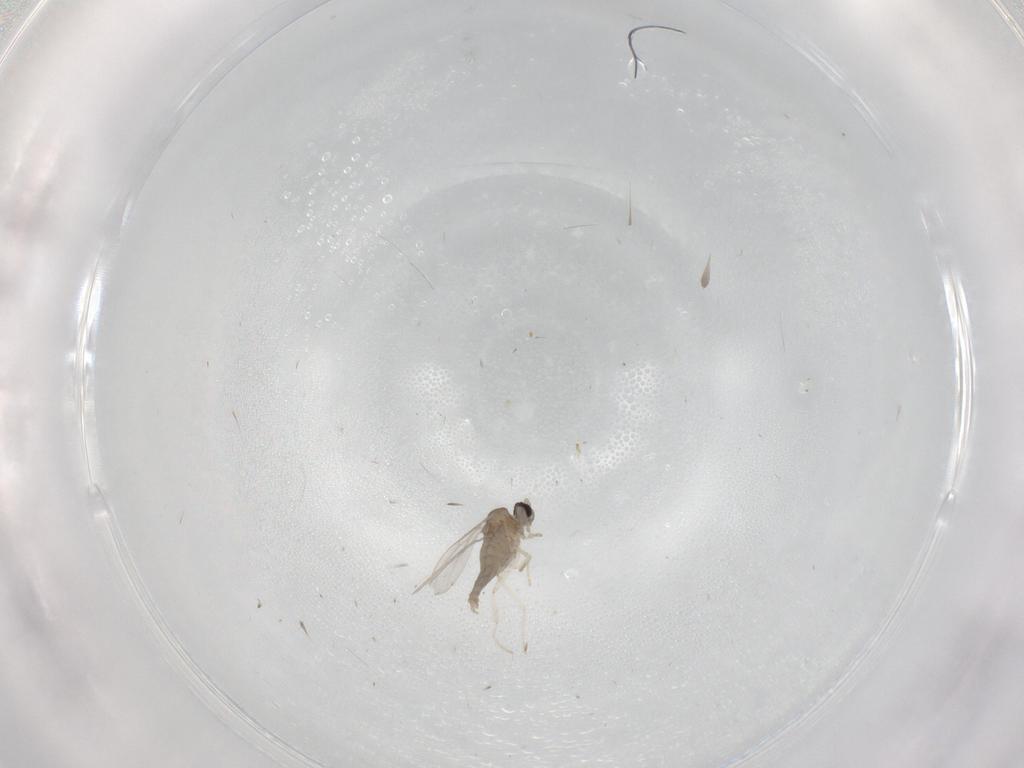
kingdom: Animalia
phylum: Arthropoda
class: Insecta
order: Diptera
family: Cecidomyiidae
